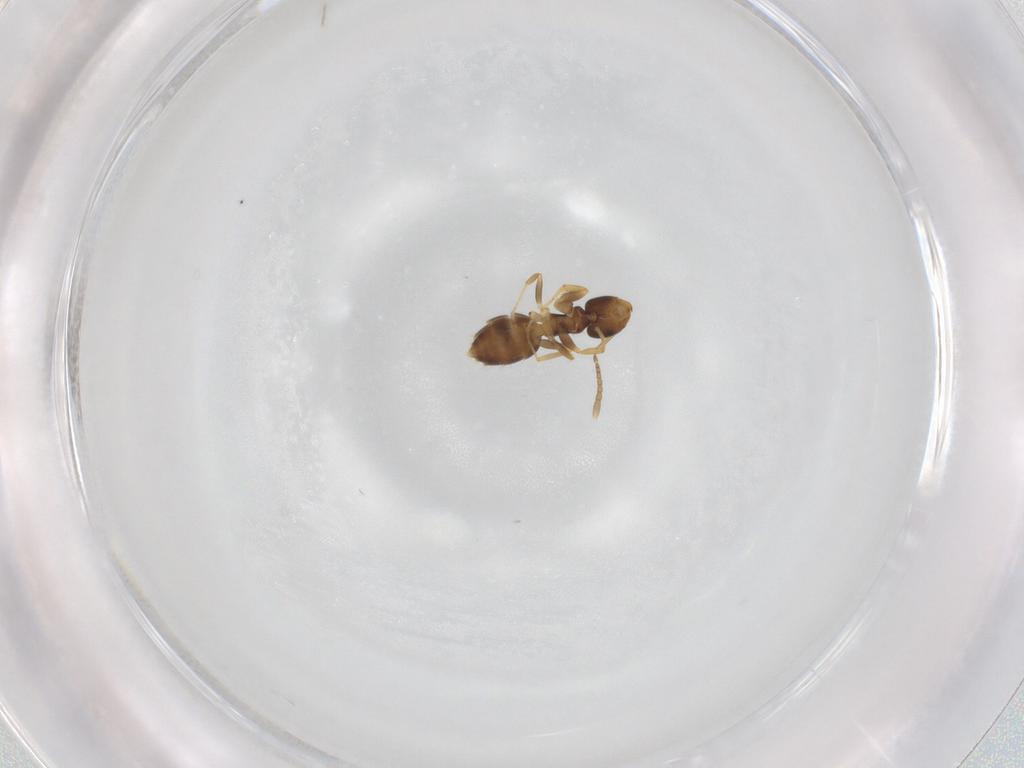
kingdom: Animalia
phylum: Arthropoda
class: Insecta
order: Hymenoptera
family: Formicidae
